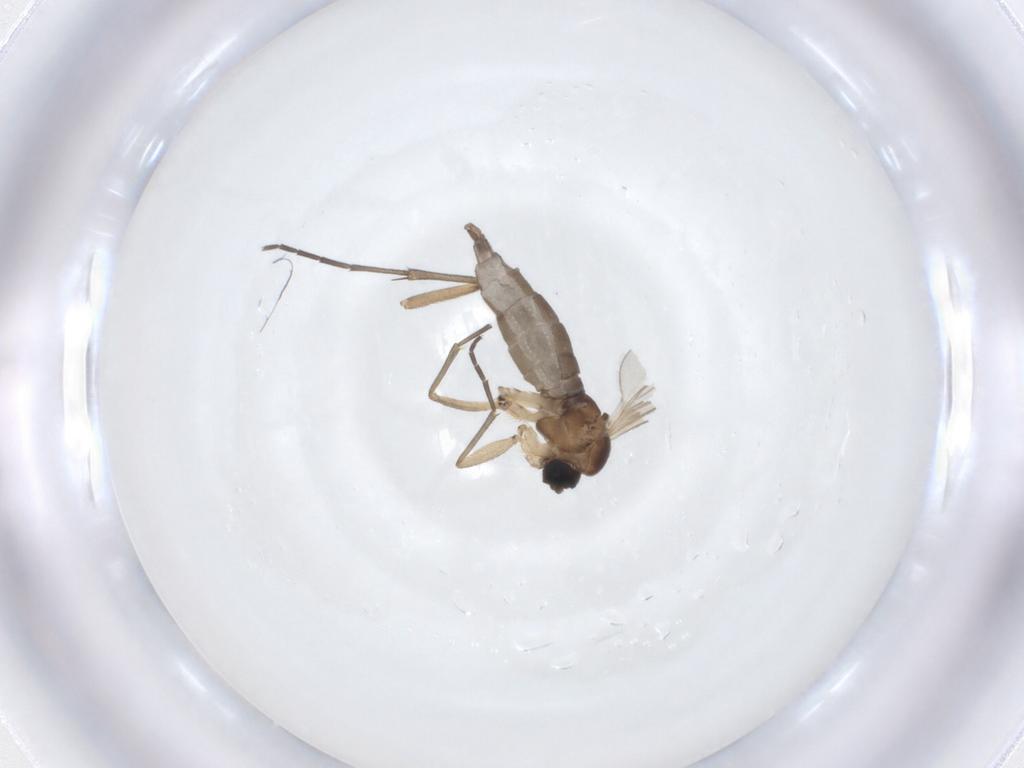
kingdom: Animalia
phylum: Arthropoda
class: Insecta
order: Diptera
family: Sciaridae
